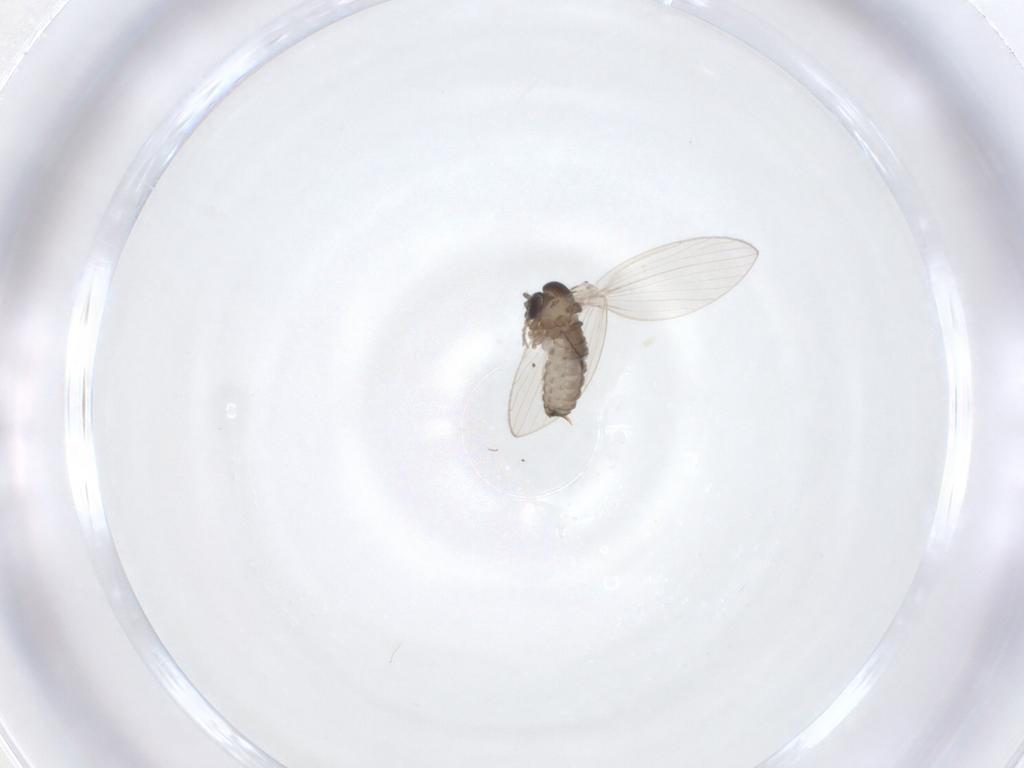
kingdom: Animalia
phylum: Arthropoda
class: Insecta
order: Diptera
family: Psychodidae
